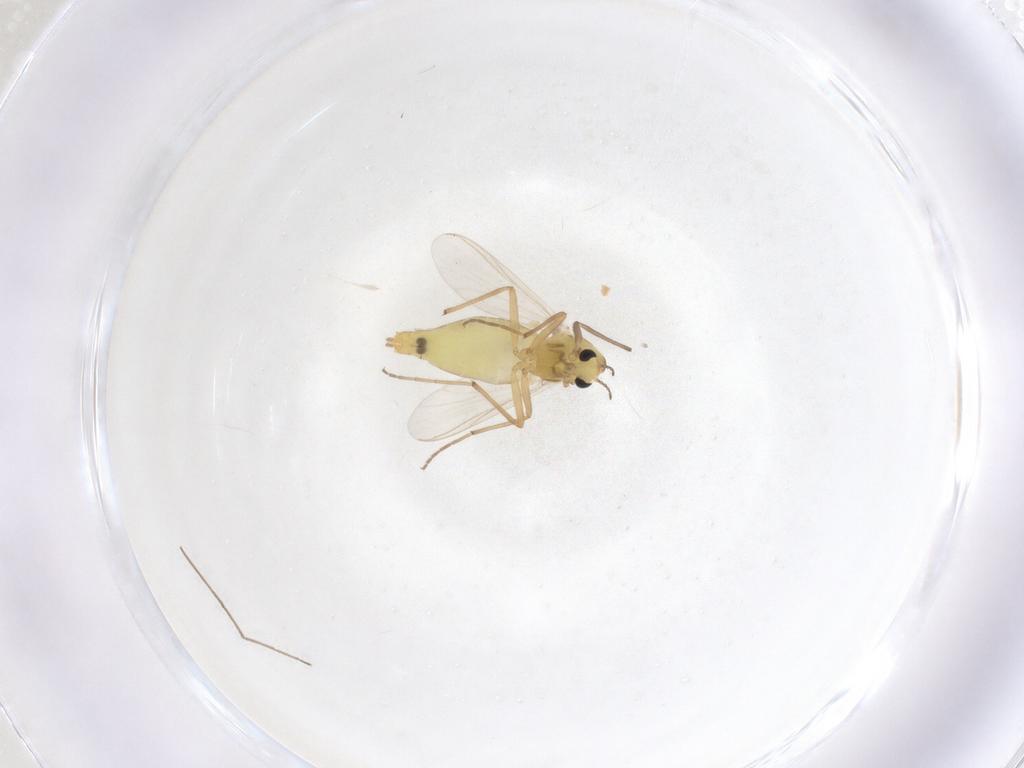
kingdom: Animalia
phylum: Arthropoda
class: Insecta
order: Diptera
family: Chironomidae
